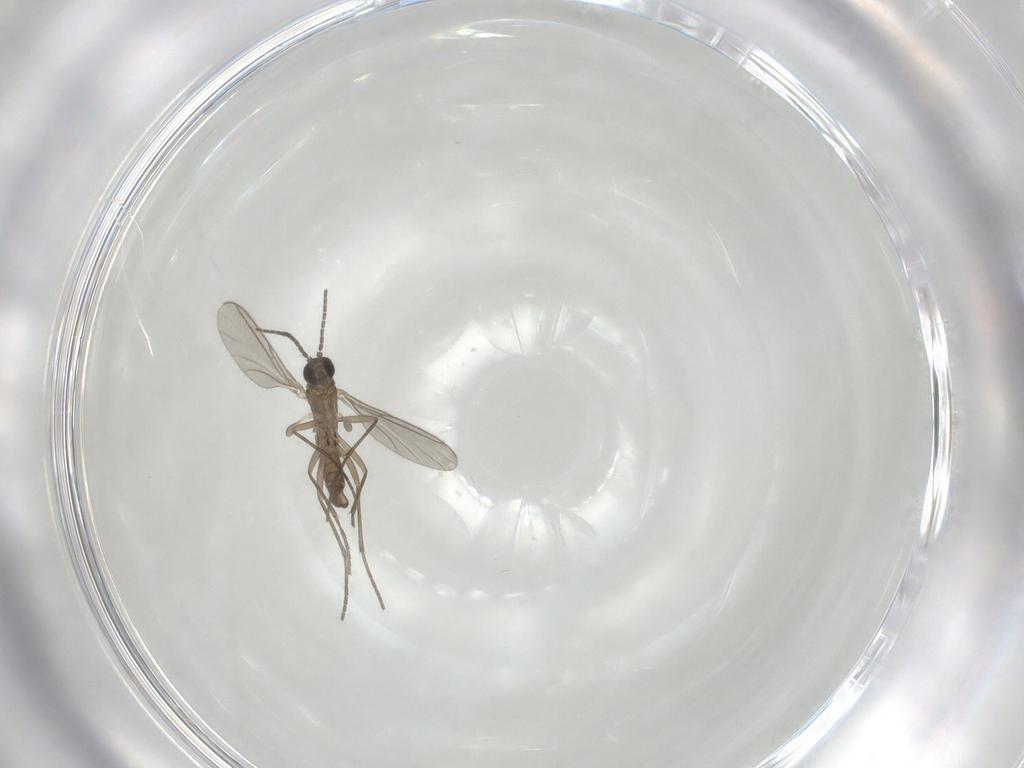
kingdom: Animalia
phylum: Arthropoda
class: Insecta
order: Diptera
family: Sciaridae
